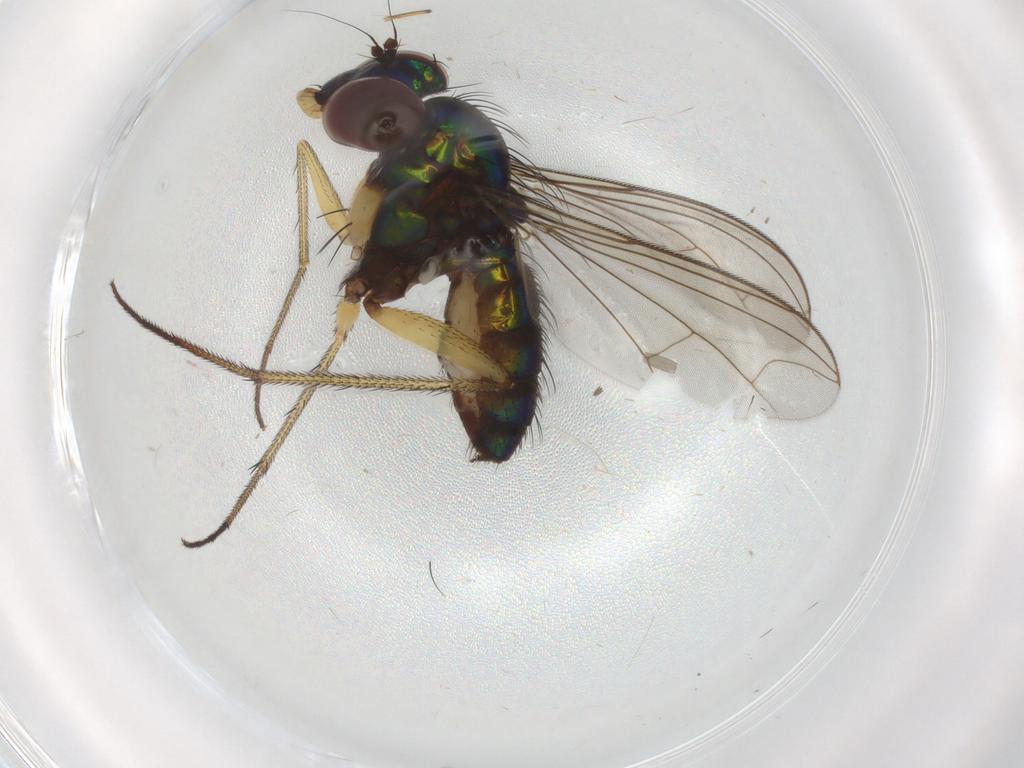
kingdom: Animalia
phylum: Arthropoda
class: Insecta
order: Diptera
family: Dolichopodidae
